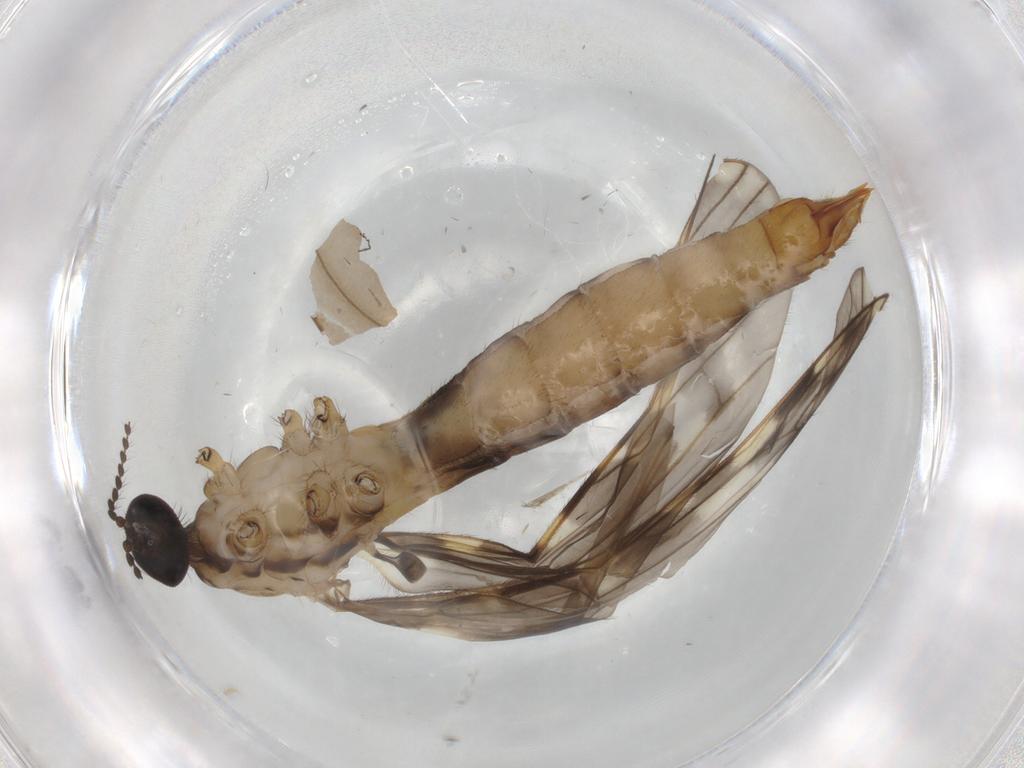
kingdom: Animalia
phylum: Arthropoda
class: Insecta
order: Diptera
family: Limoniidae
